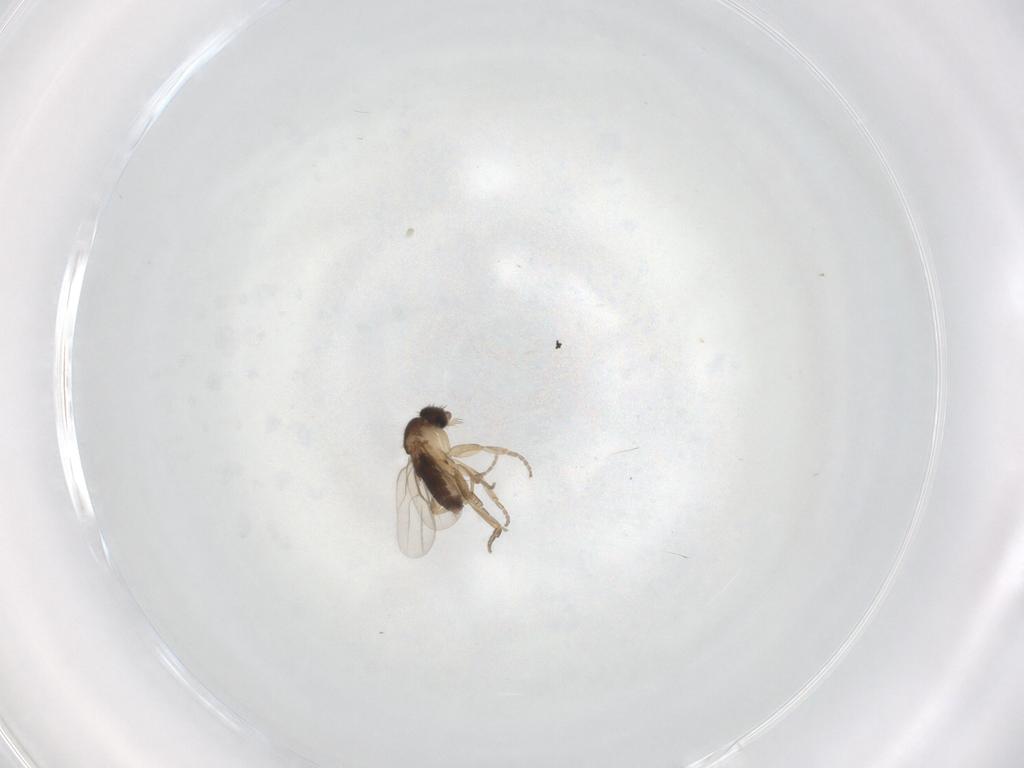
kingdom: Animalia
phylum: Arthropoda
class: Insecta
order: Diptera
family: Phoridae
